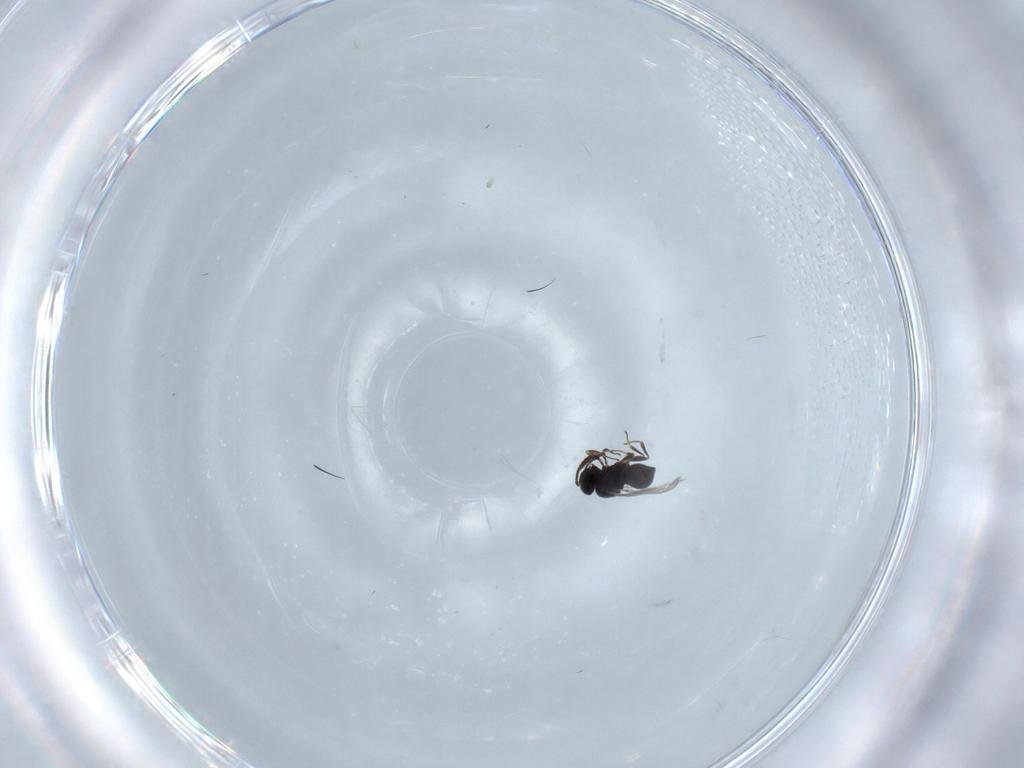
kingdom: Animalia
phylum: Arthropoda
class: Insecta
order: Hymenoptera
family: Scelionidae
